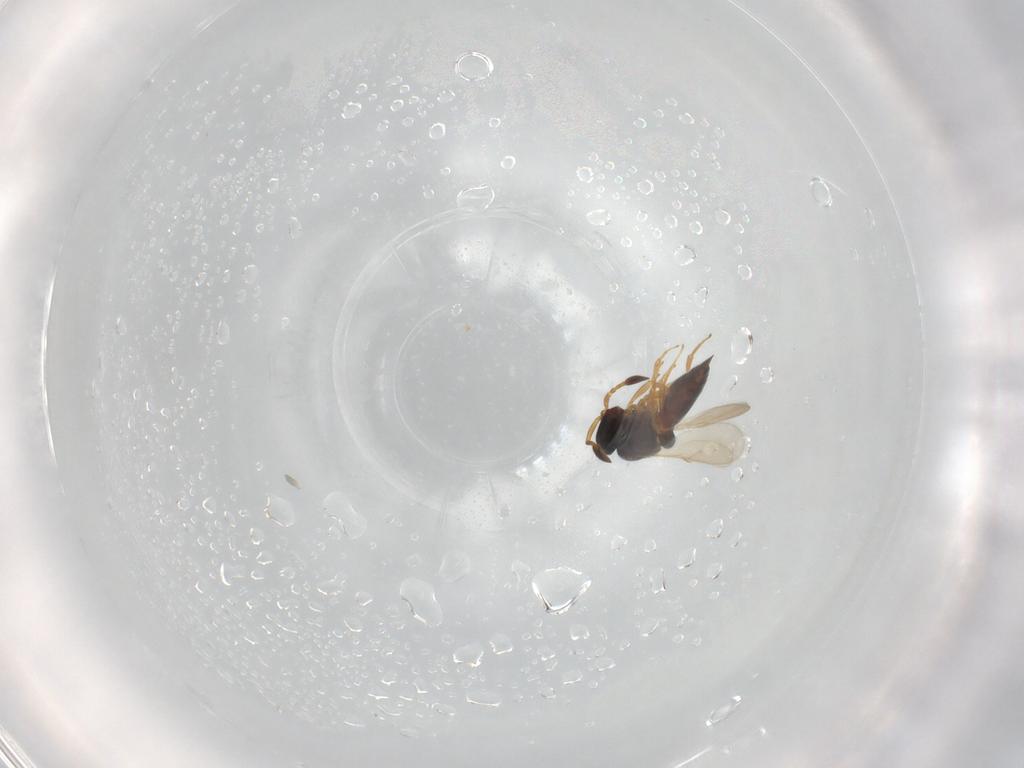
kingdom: Animalia
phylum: Arthropoda
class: Insecta
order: Hymenoptera
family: Scelionidae
